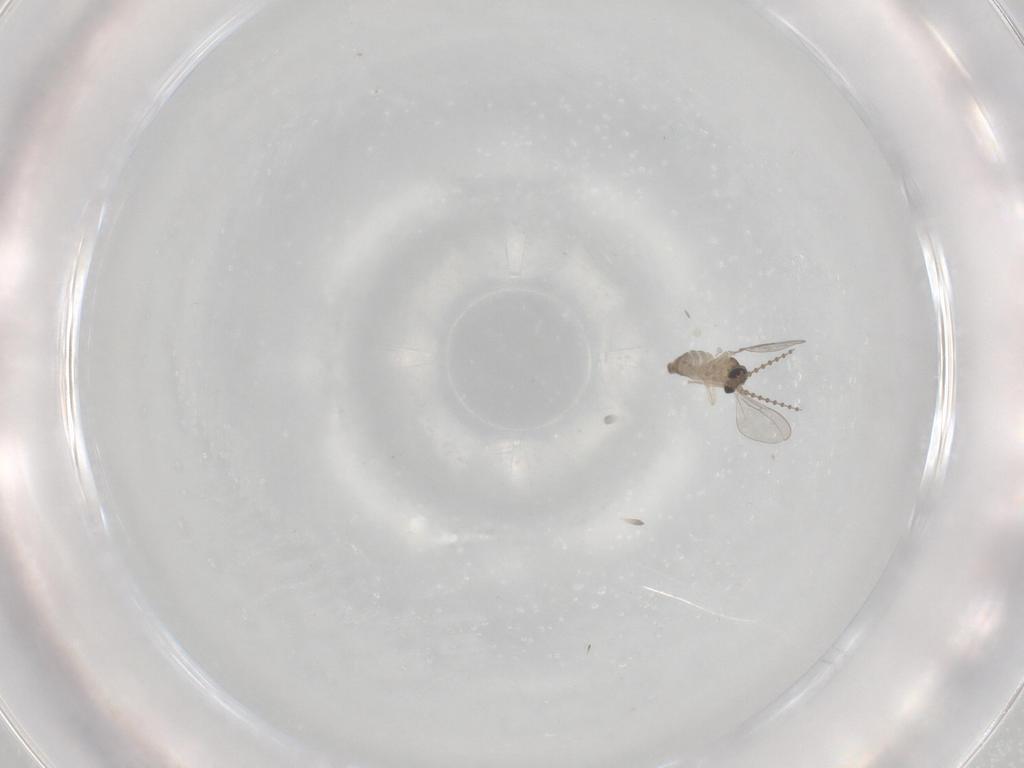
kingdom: Animalia
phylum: Arthropoda
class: Insecta
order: Diptera
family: Cecidomyiidae
